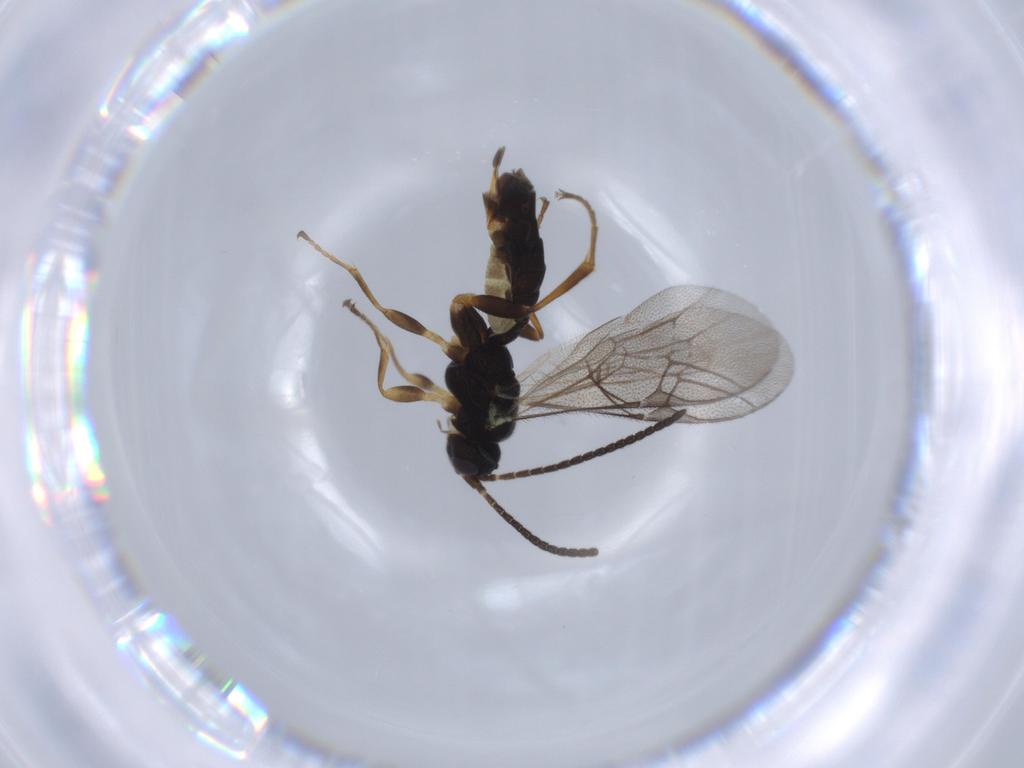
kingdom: Animalia
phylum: Arthropoda
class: Insecta
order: Hymenoptera
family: Ichneumonidae
